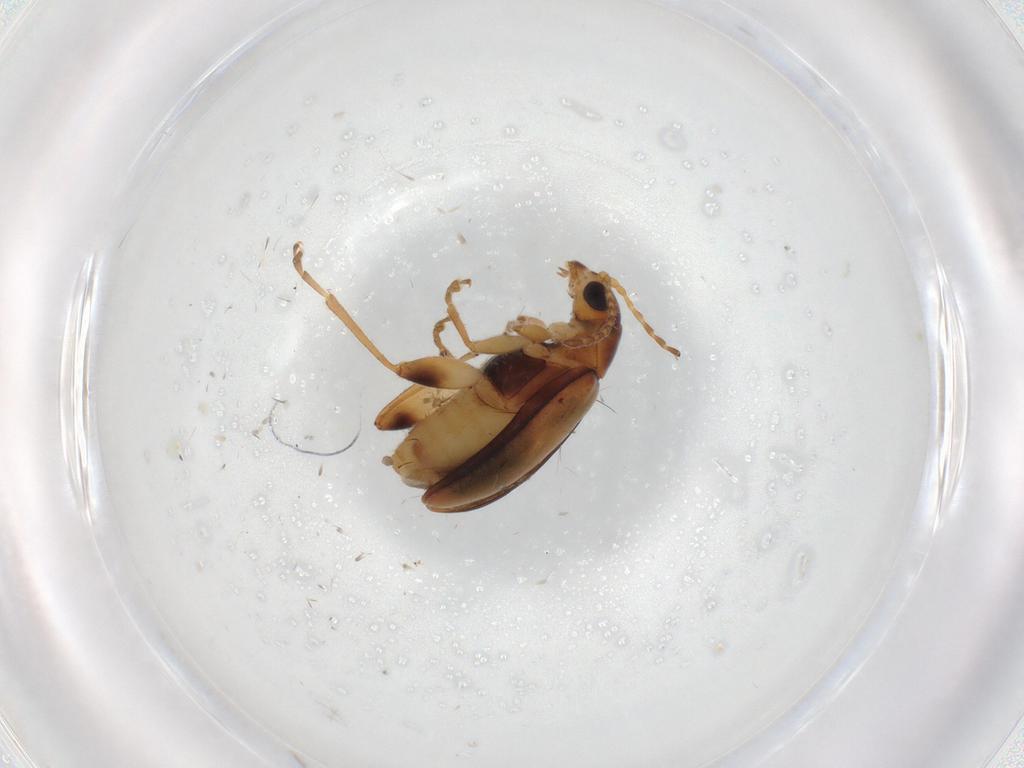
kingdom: Animalia
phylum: Arthropoda
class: Insecta
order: Coleoptera
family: Chrysomelidae
